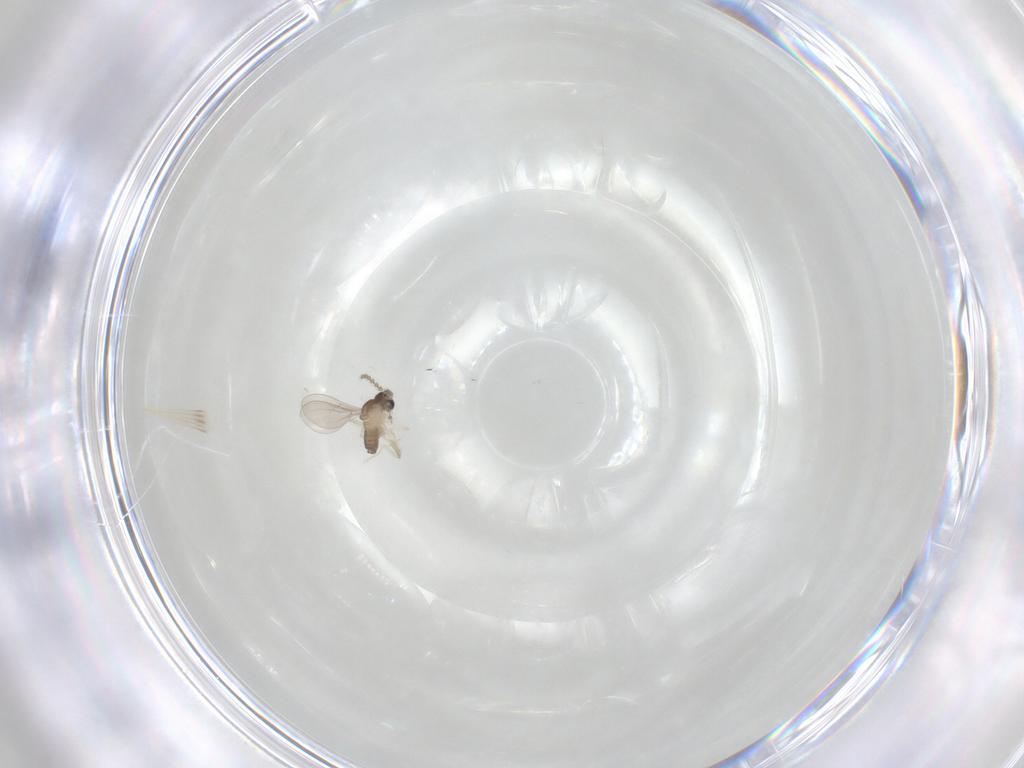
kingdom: Animalia
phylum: Arthropoda
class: Insecta
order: Diptera
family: Cecidomyiidae
